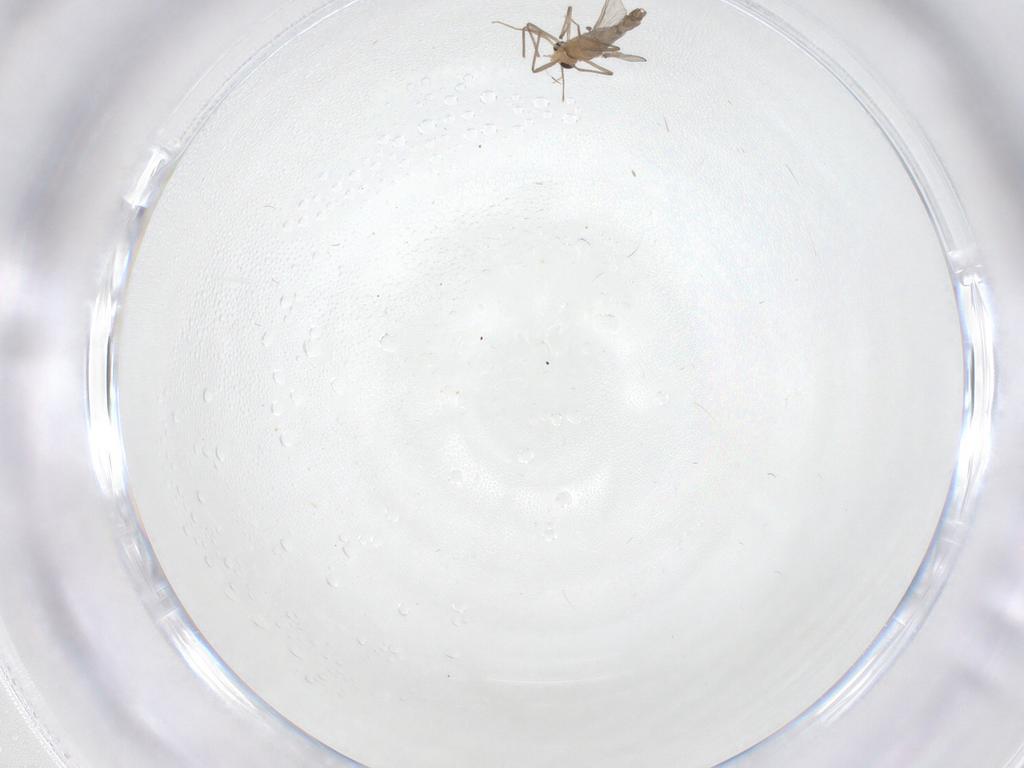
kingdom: Animalia
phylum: Arthropoda
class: Insecta
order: Diptera
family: Chironomidae
